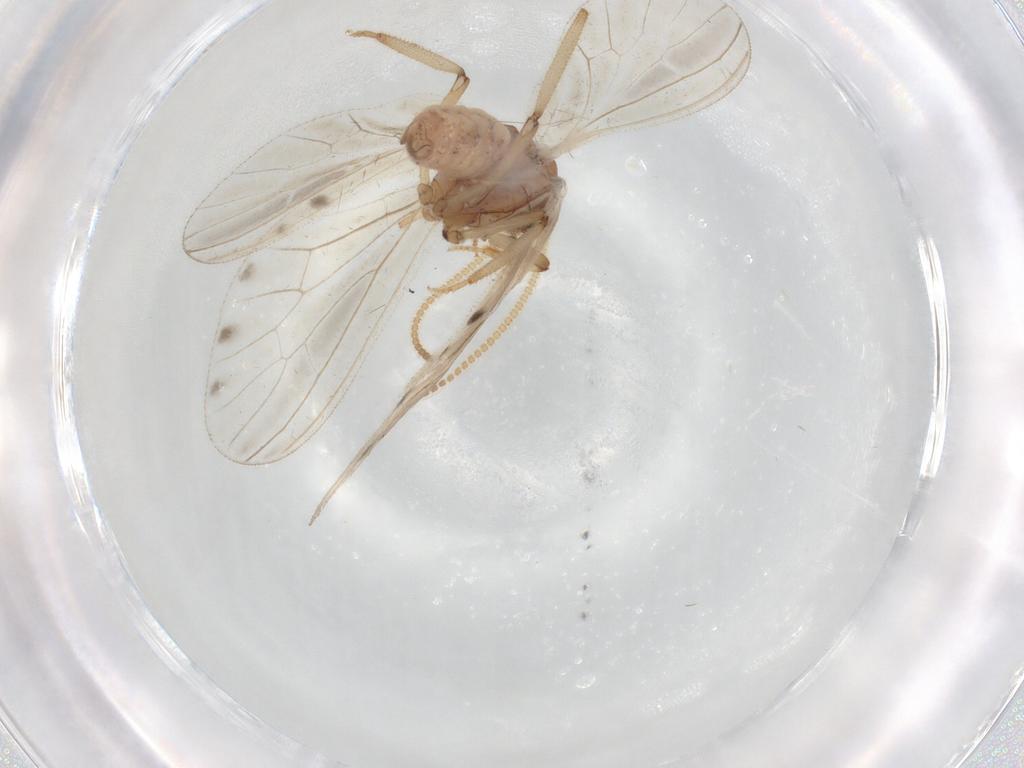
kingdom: Animalia
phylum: Arthropoda
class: Insecta
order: Neuroptera
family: Coniopterygidae
